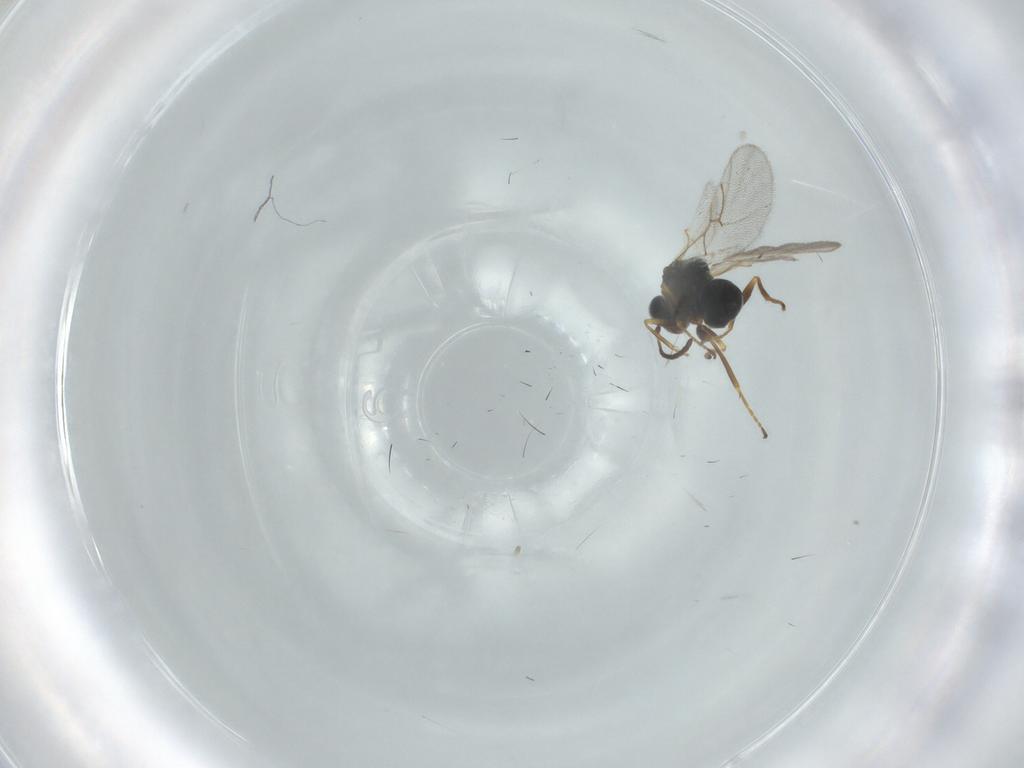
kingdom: Animalia
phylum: Arthropoda
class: Insecta
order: Hymenoptera
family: Figitidae
